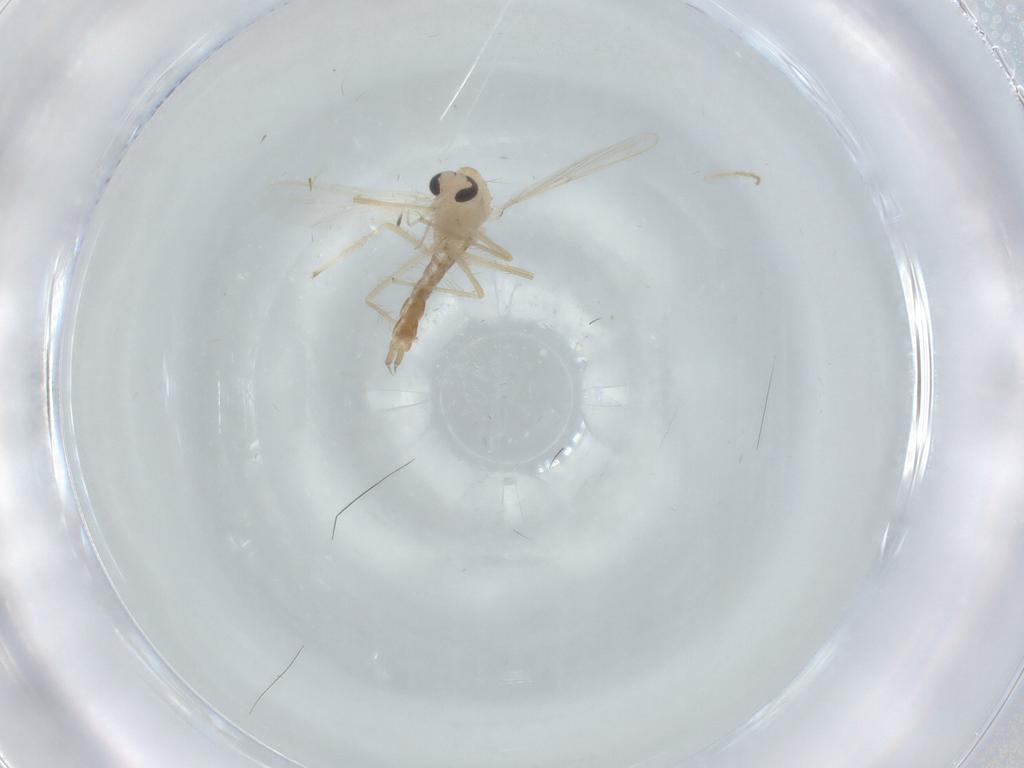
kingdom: Animalia
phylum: Arthropoda
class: Insecta
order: Diptera
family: Chironomidae
